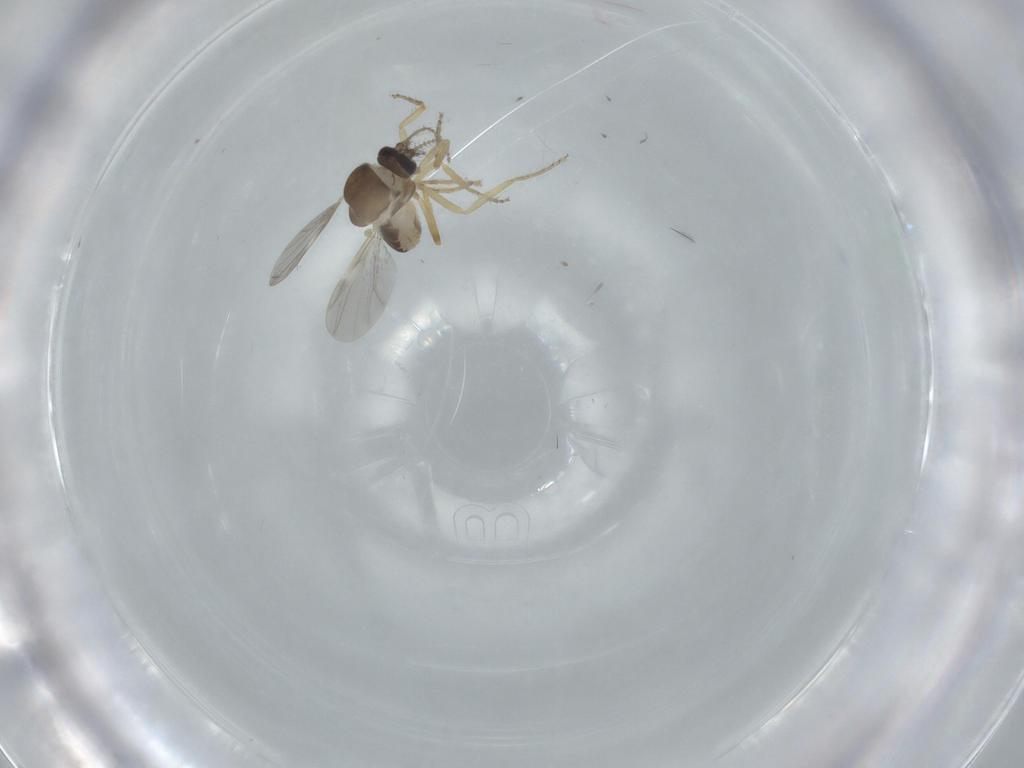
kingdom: Animalia
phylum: Arthropoda
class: Insecta
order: Diptera
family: Ceratopogonidae
